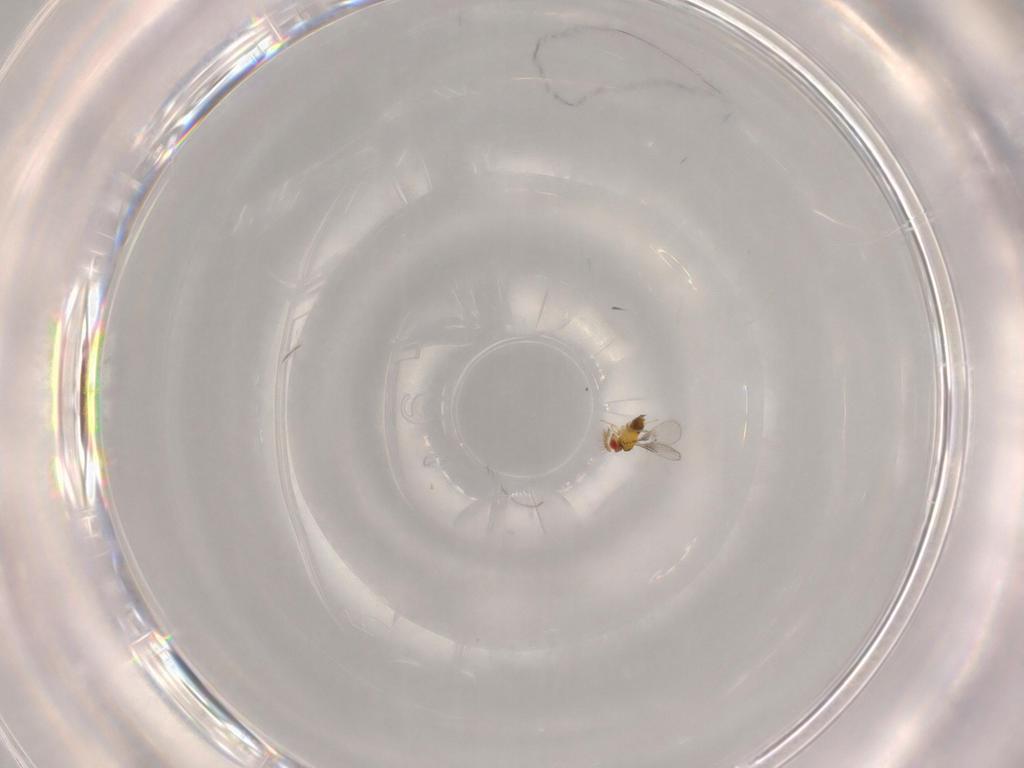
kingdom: Animalia
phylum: Arthropoda
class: Insecta
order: Hymenoptera
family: Trichogrammatidae
